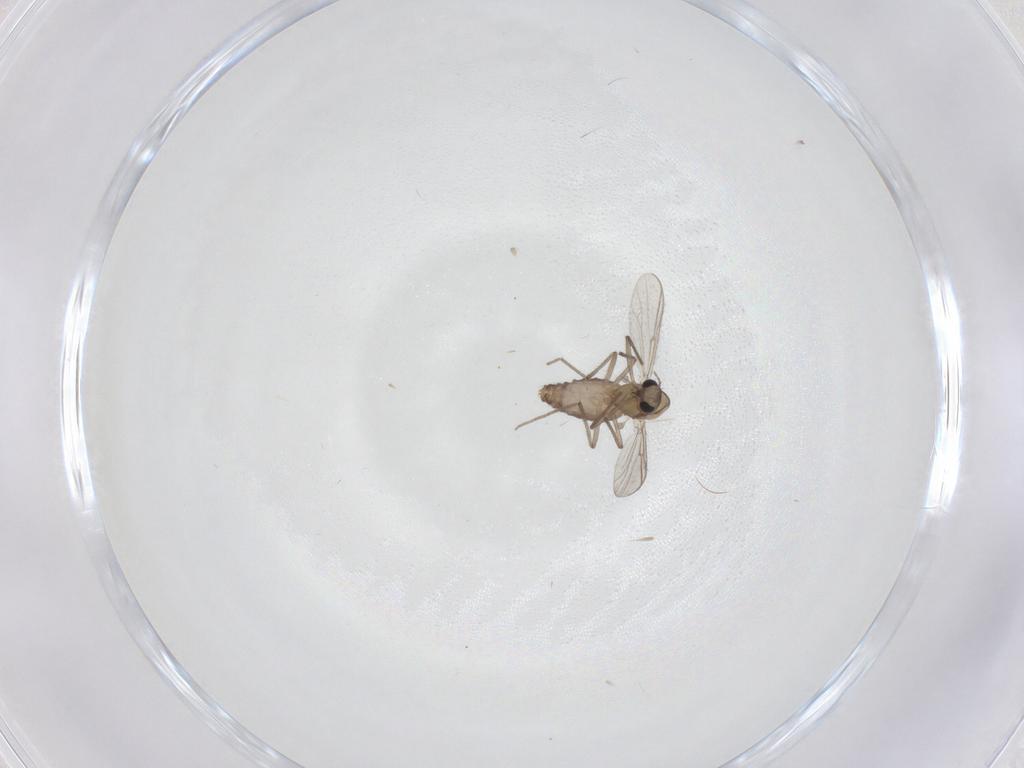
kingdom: Animalia
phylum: Arthropoda
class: Insecta
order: Diptera
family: Chironomidae
